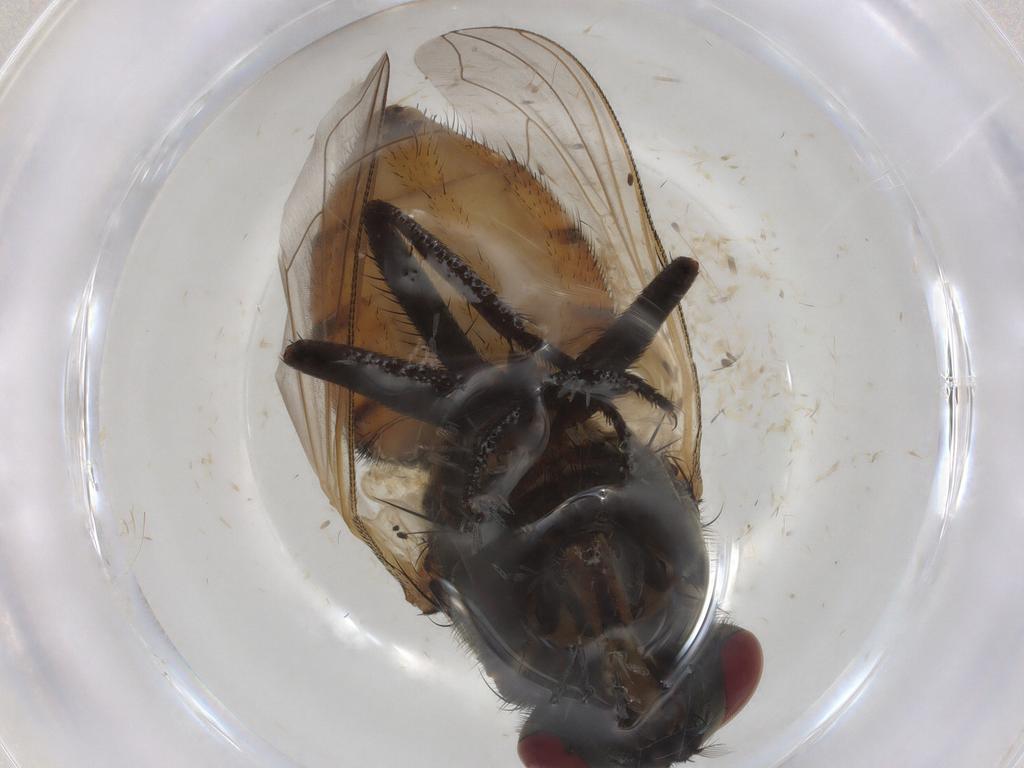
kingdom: Animalia
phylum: Arthropoda
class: Insecta
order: Diptera
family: Muscidae
